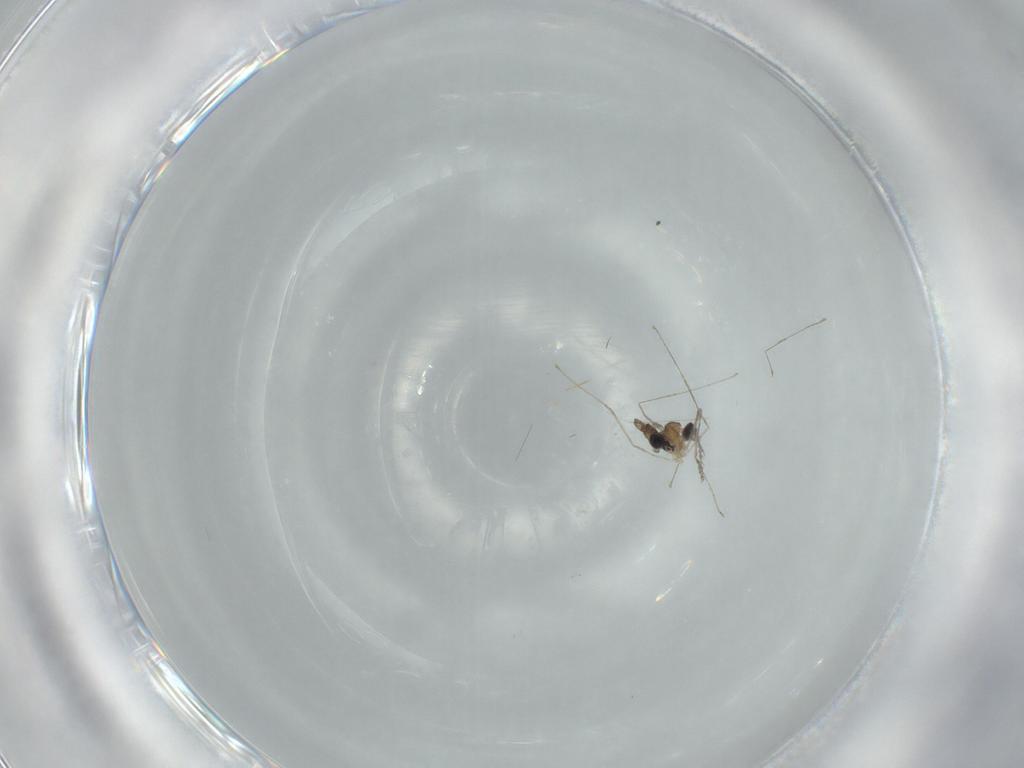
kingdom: Animalia
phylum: Arthropoda
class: Insecta
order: Diptera
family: Cecidomyiidae
